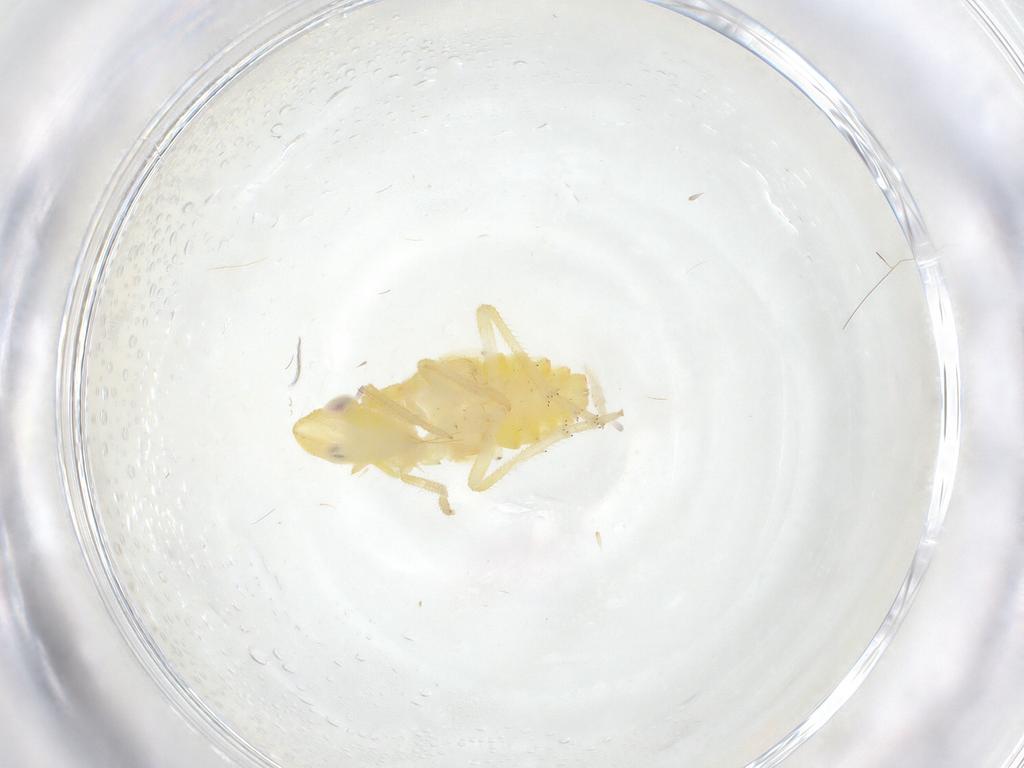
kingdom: Animalia
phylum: Arthropoda
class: Insecta
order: Hemiptera
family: Tropiduchidae
